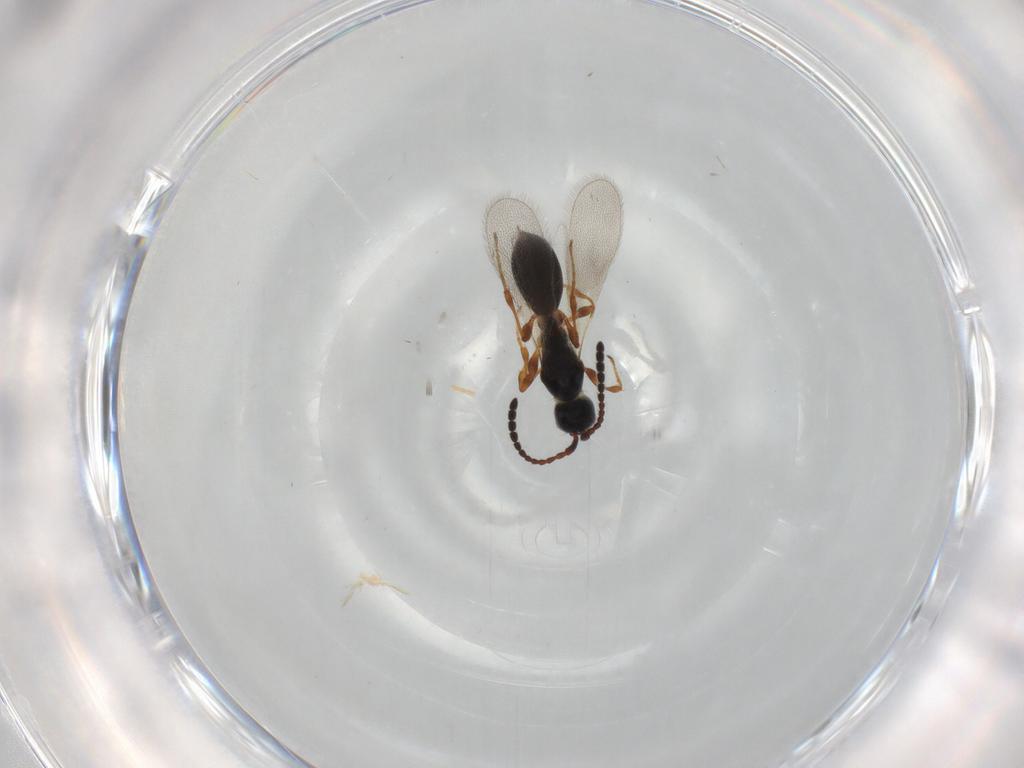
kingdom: Animalia
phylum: Arthropoda
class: Insecta
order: Hymenoptera
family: Diapriidae
